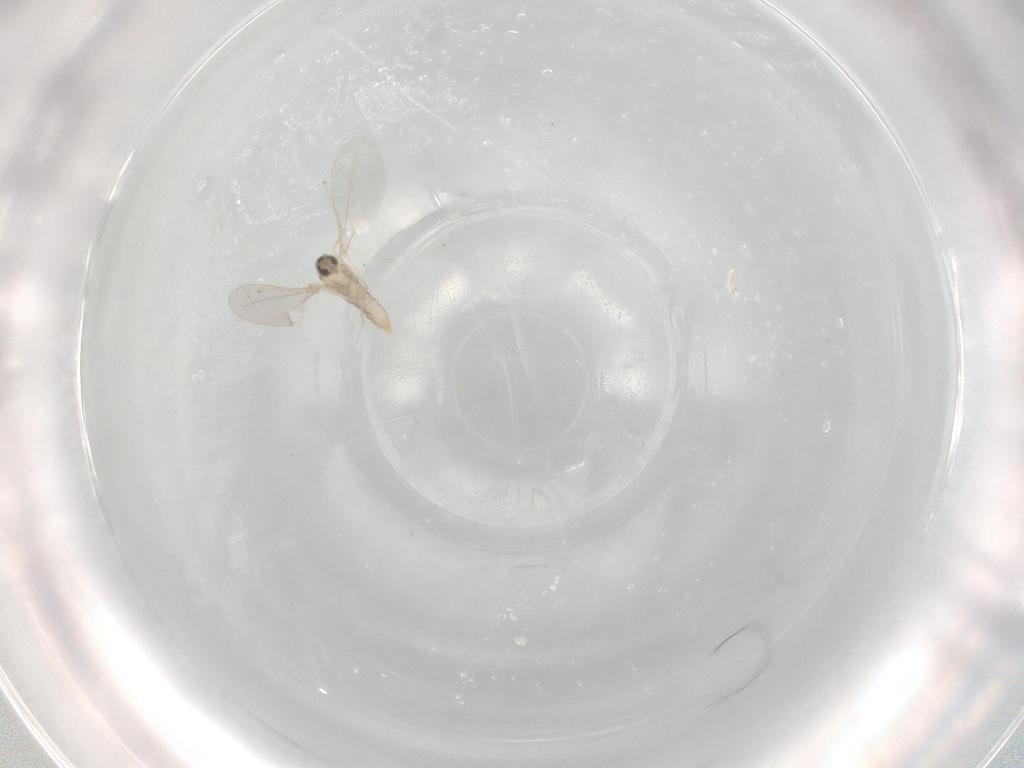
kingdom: Animalia
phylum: Arthropoda
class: Insecta
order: Diptera
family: Cecidomyiidae
